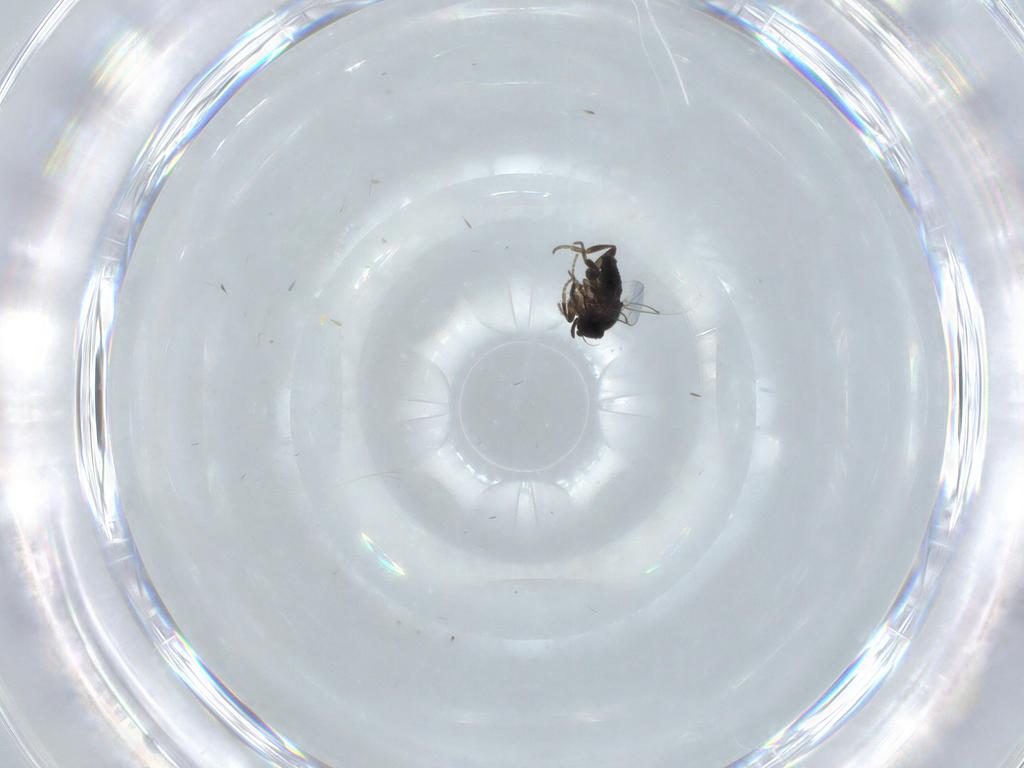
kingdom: Animalia
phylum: Arthropoda
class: Insecta
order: Diptera
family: Phoridae
